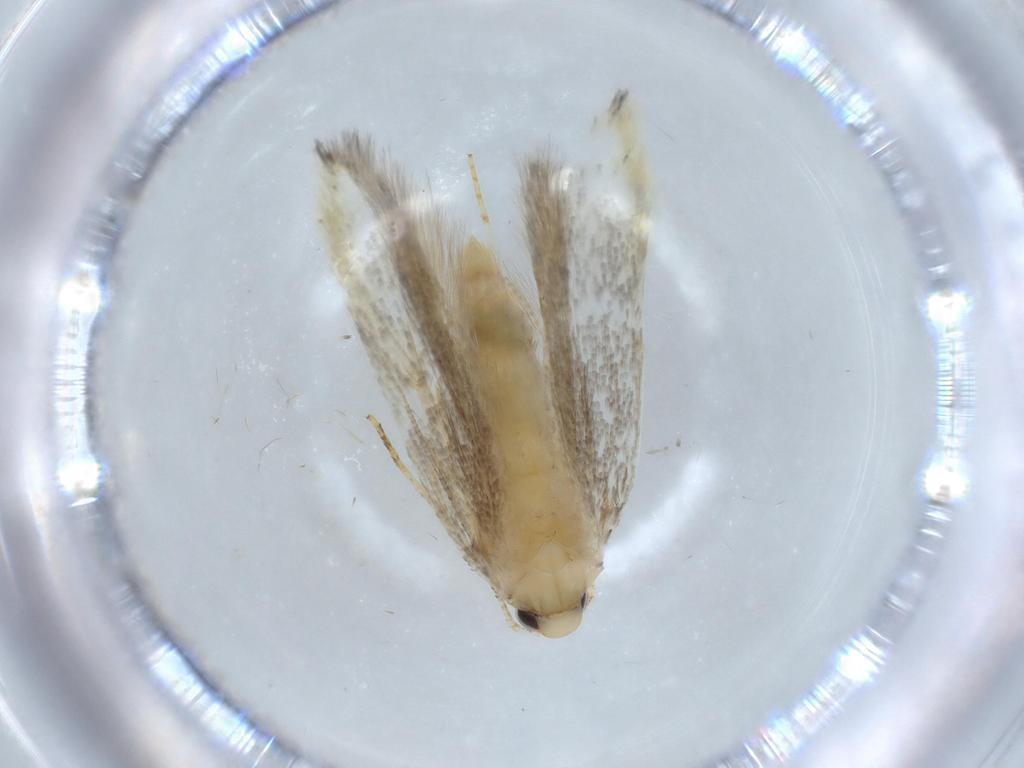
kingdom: Animalia
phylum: Arthropoda
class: Insecta
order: Lepidoptera
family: Autostichidae
